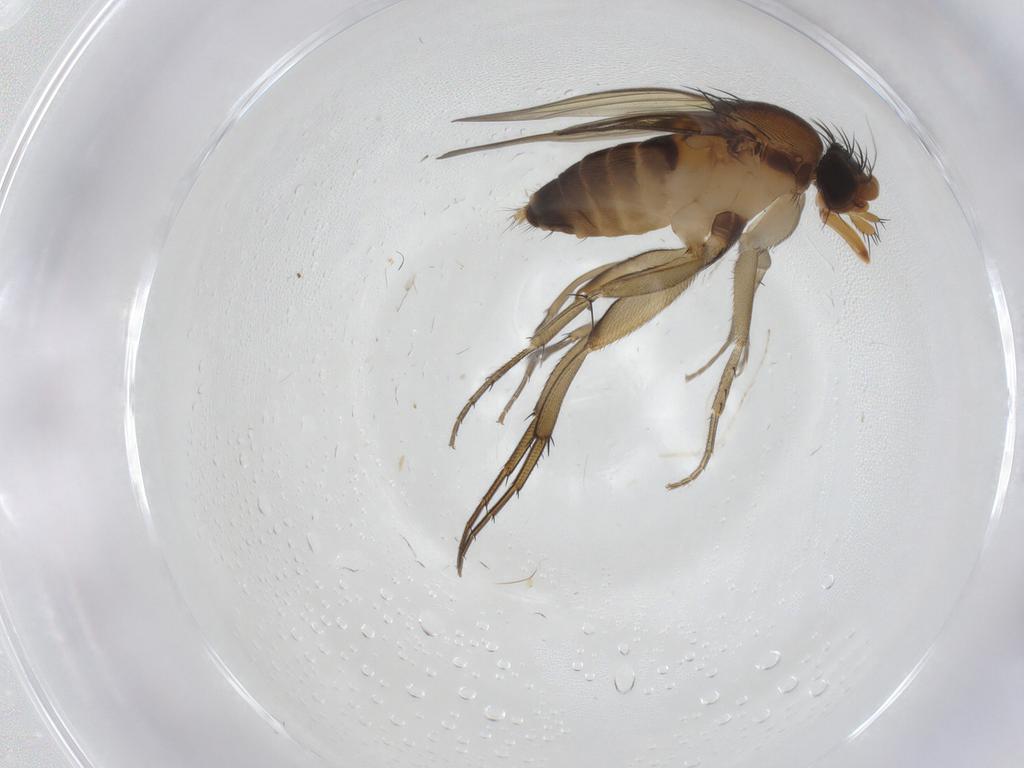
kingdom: Animalia
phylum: Arthropoda
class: Insecta
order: Diptera
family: Phoridae
